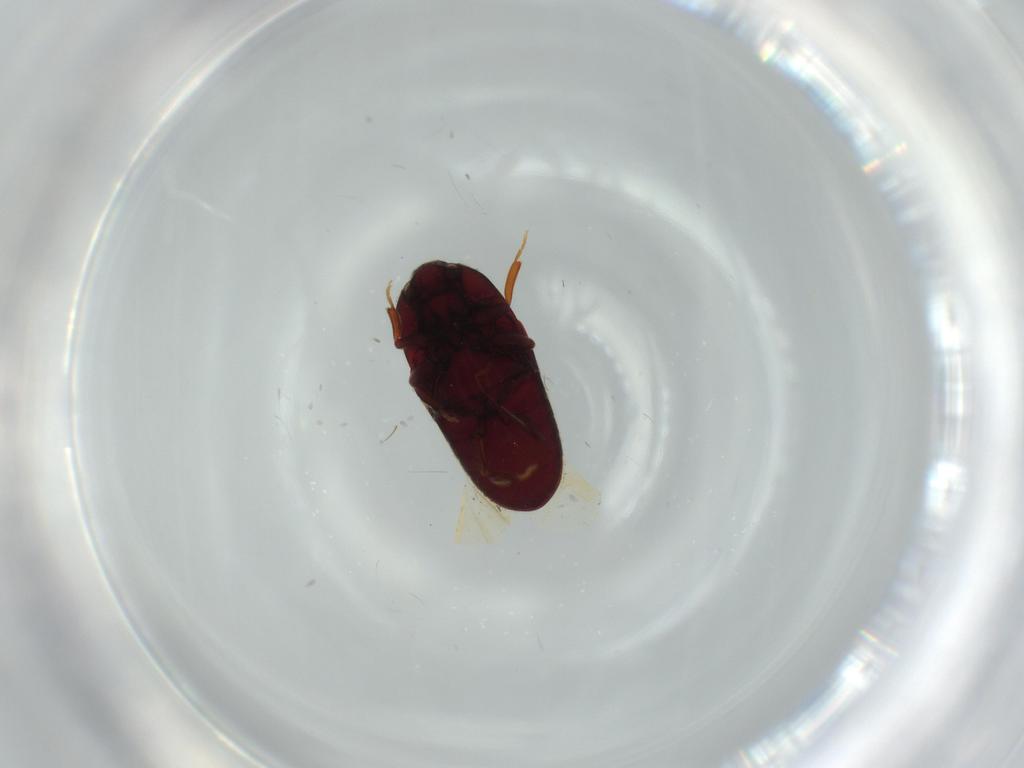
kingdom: Animalia
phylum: Arthropoda
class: Insecta
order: Coleoptera
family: Throscidae
